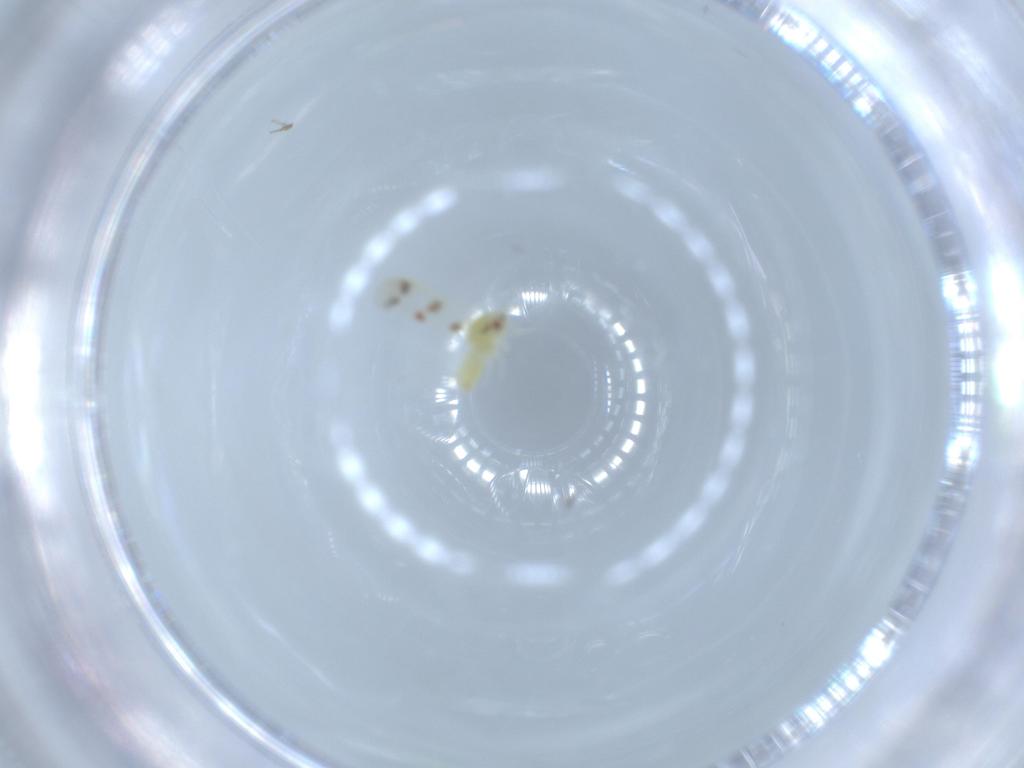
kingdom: Animalia
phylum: Arthropoda
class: Insecta
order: Hemiptera
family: Aleyrodidae
